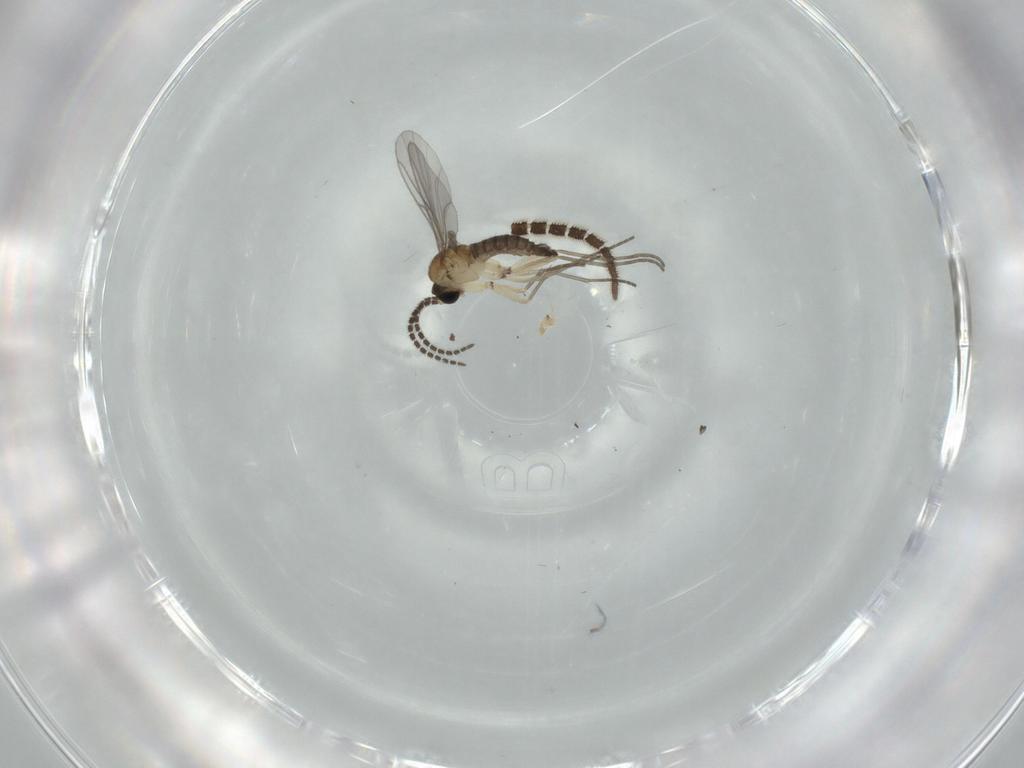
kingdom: Animalia
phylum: Arthropoda
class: Insecta
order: Diptera
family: Sciaridae
